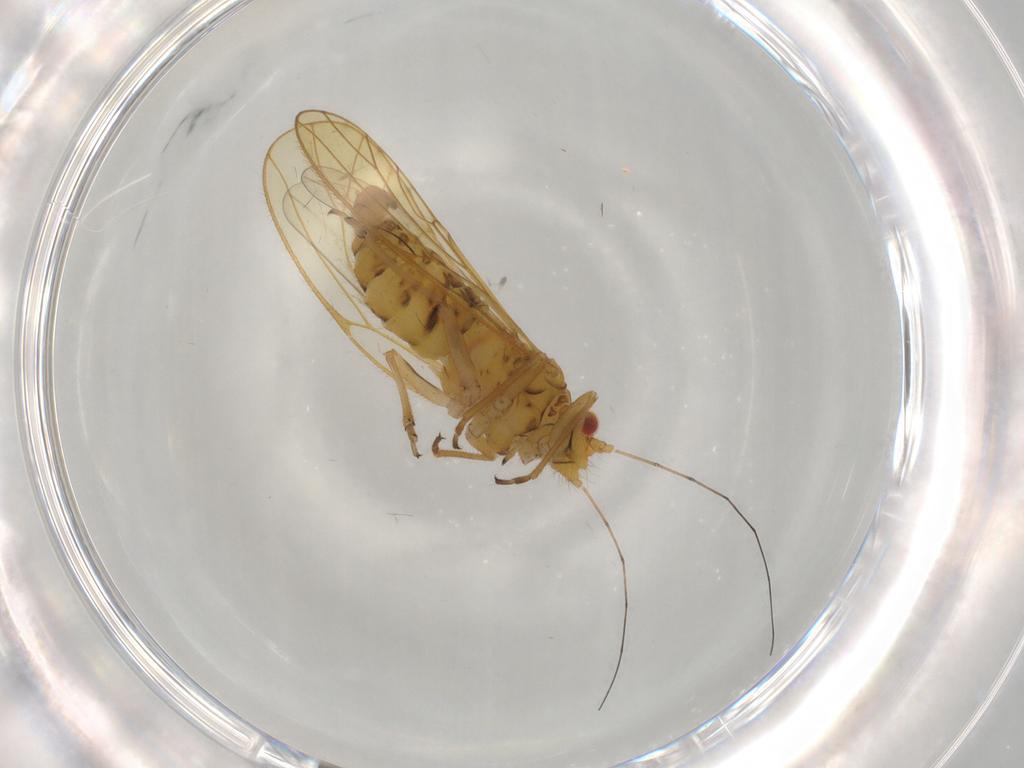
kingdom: Animalia
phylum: Arthropoda
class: Insecta
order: Hemiptera
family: Psyllidae
